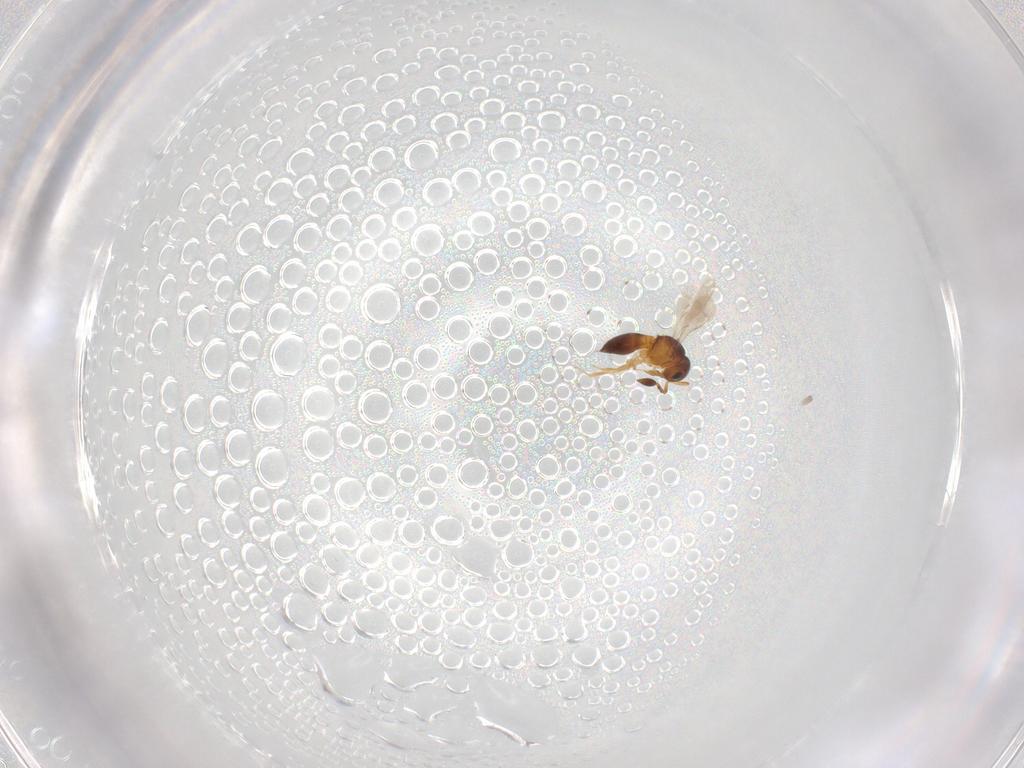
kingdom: Animalia
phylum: Arthropoda
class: Insecta
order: Hymenoptera
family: Scelionidae
